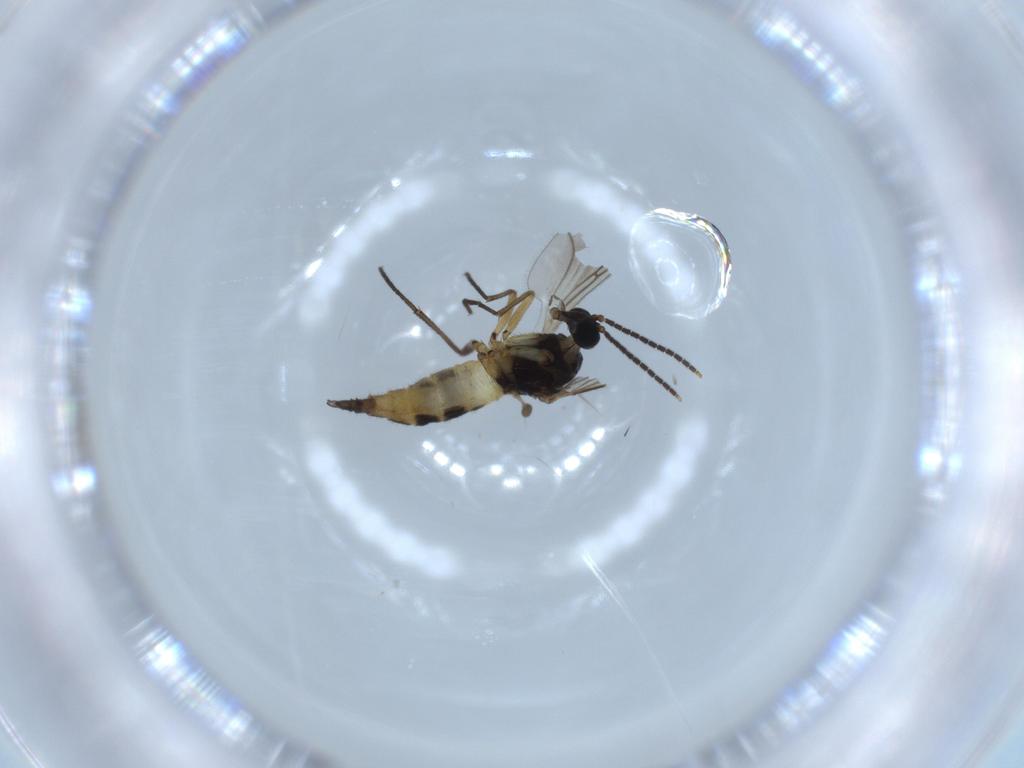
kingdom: Animalia
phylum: Arthropoda
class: Insecta
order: Diptera
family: Sciaridae
